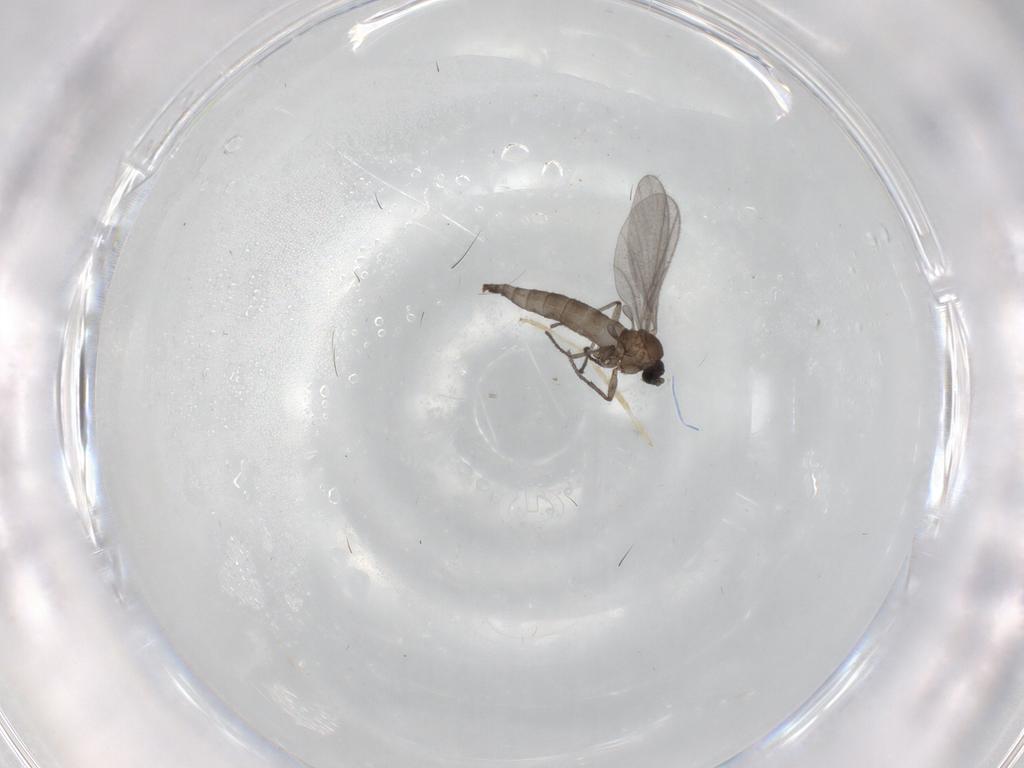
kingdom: Animalia
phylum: Arthropoda
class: Insecta
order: Diptera
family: Sciaridae
